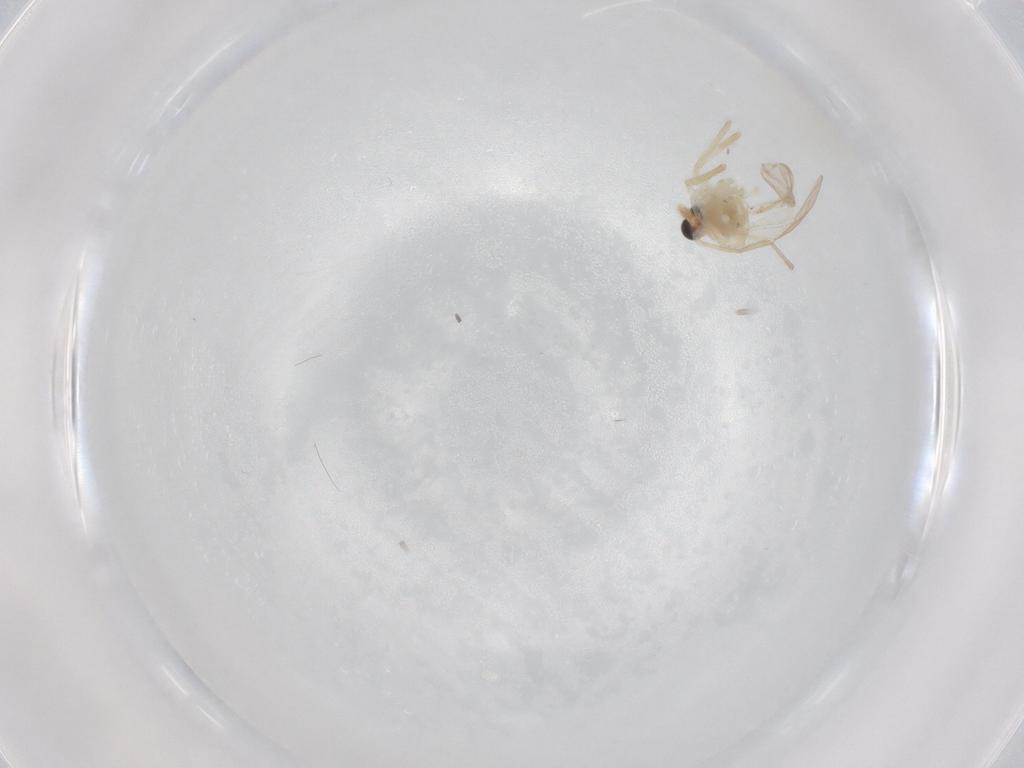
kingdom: Animalia
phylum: Arthropoda
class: Insecta
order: Diptera
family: Chironomidae
